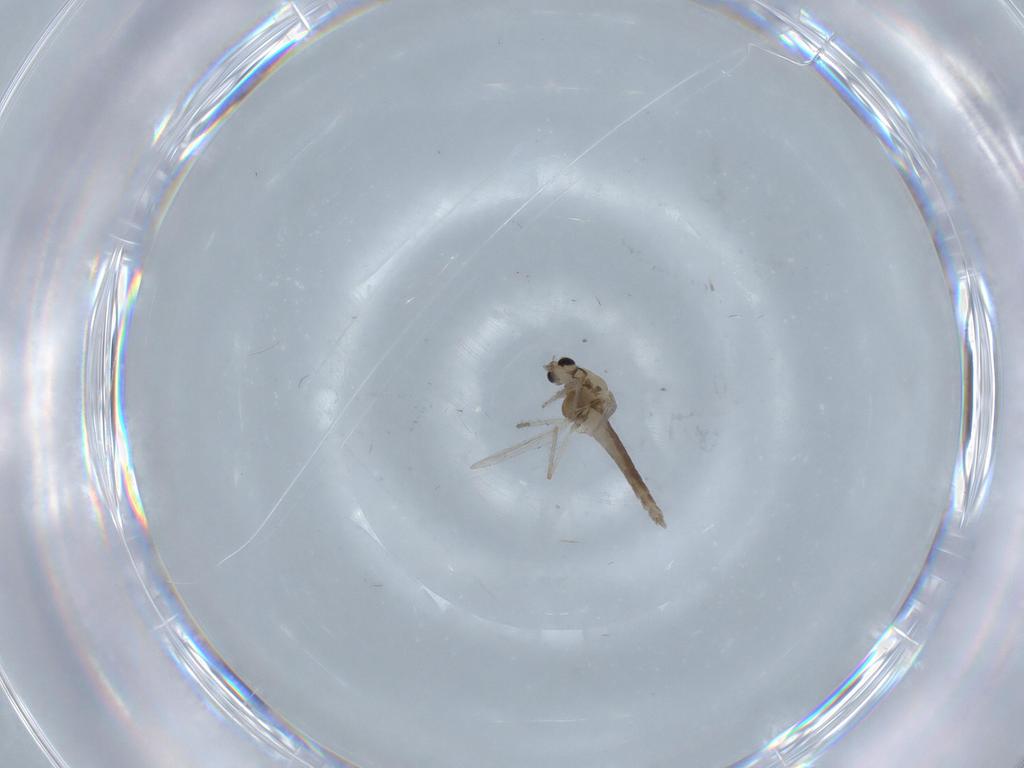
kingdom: Animalia
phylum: Arthropoda
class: Insecta
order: Diptera
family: Chironomidae
